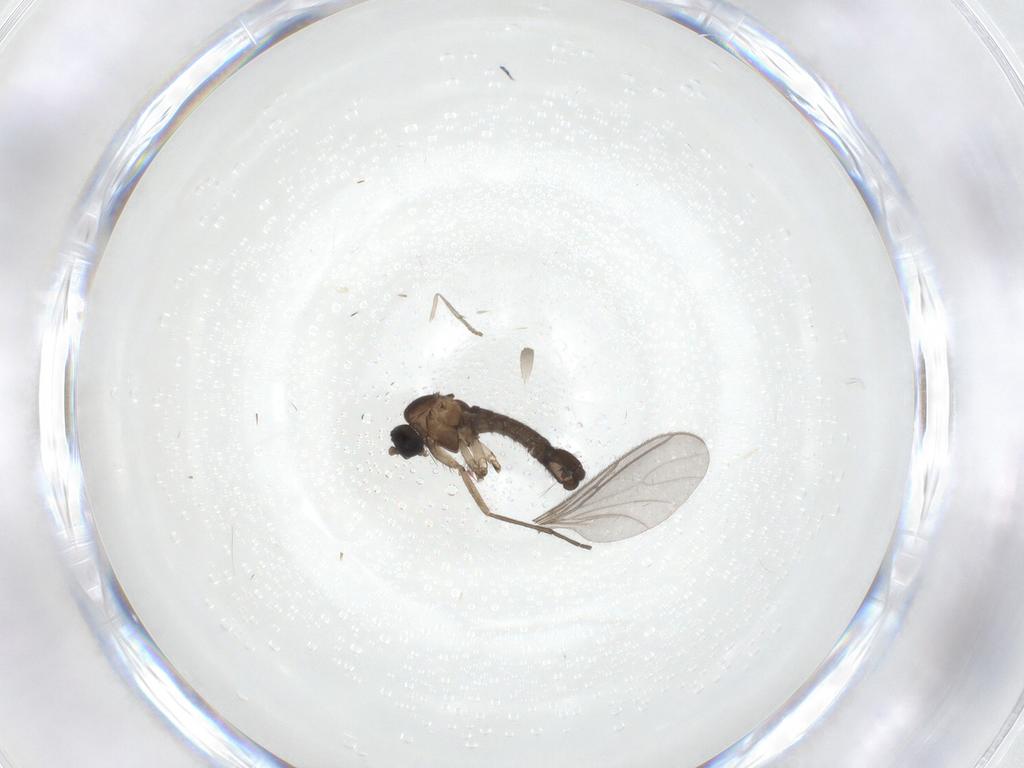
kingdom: Animalia
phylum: Arthropoda
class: Insecta
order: Diptera
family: Sciaridae
